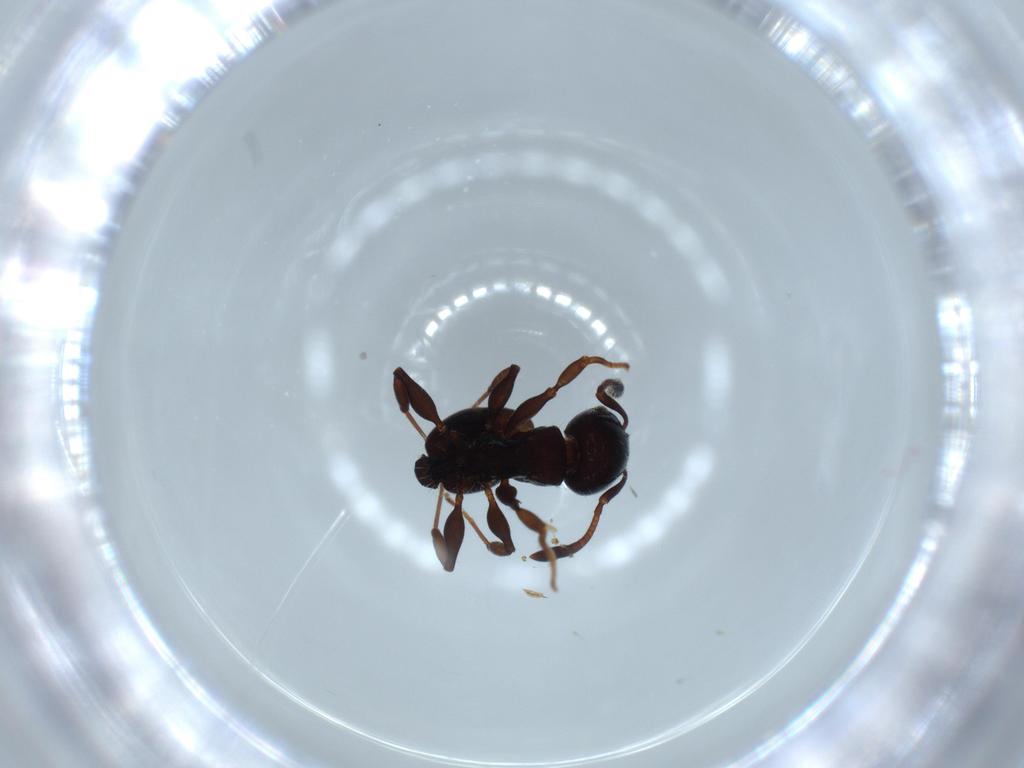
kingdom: Animalia
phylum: Arthropoda
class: Insecta
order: Hymenoptera
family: Formicidae
